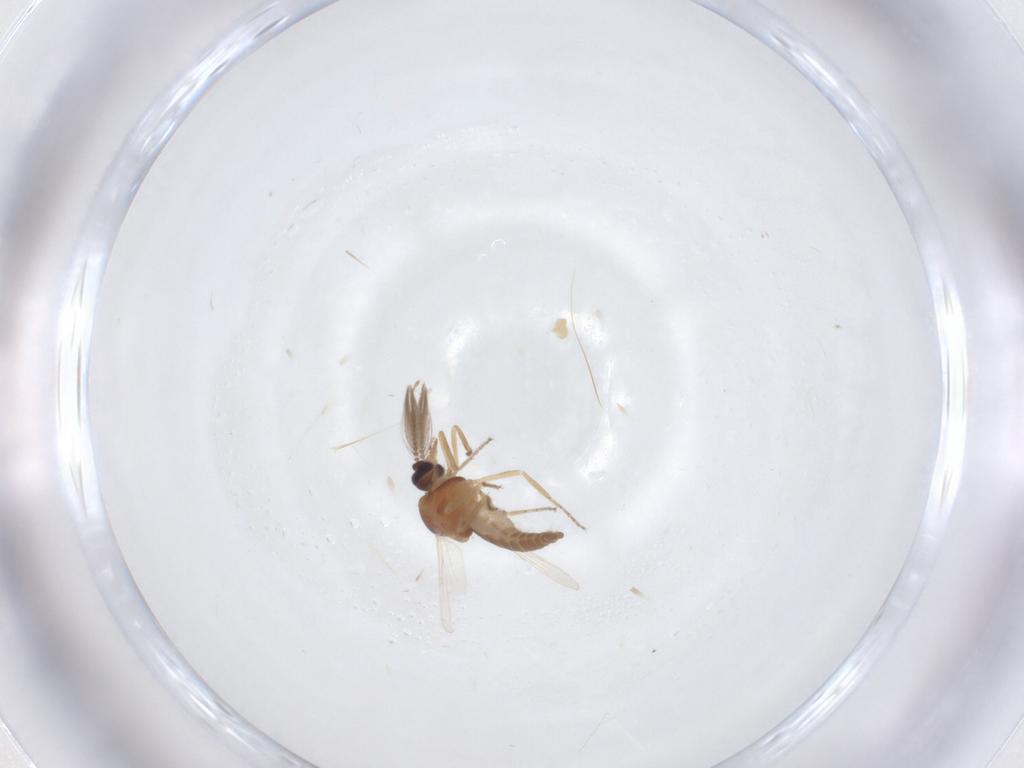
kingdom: Animalia
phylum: Arthropoda
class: Insecta
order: Diptera
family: Ceratopogonidae
